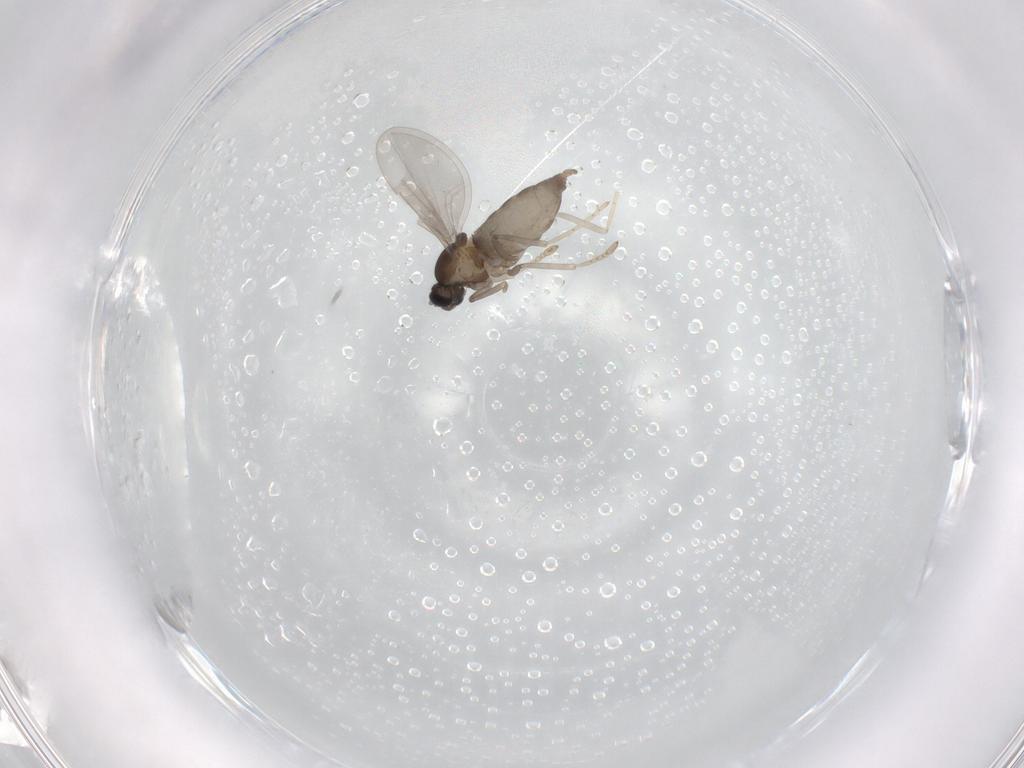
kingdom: Animalia
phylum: Arthropoda
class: Insecta
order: Diptera
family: Cecidomyiidae
